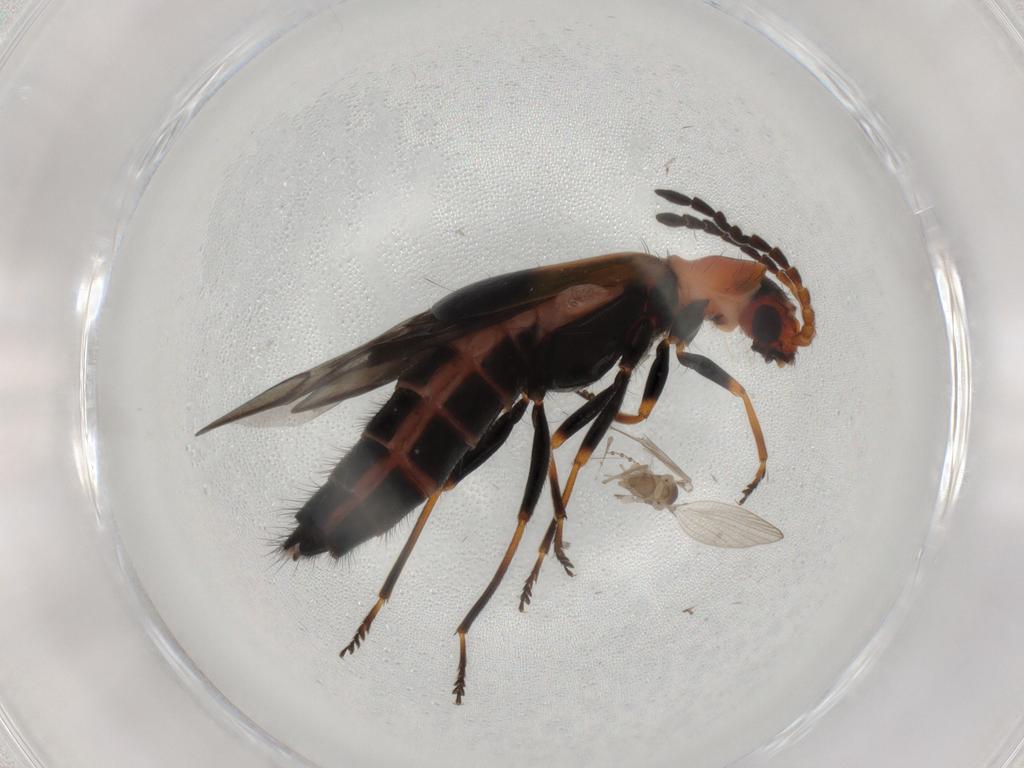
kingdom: Animalia
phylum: Arthropoda
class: Insecta
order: Coleoptera
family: Melyridae
